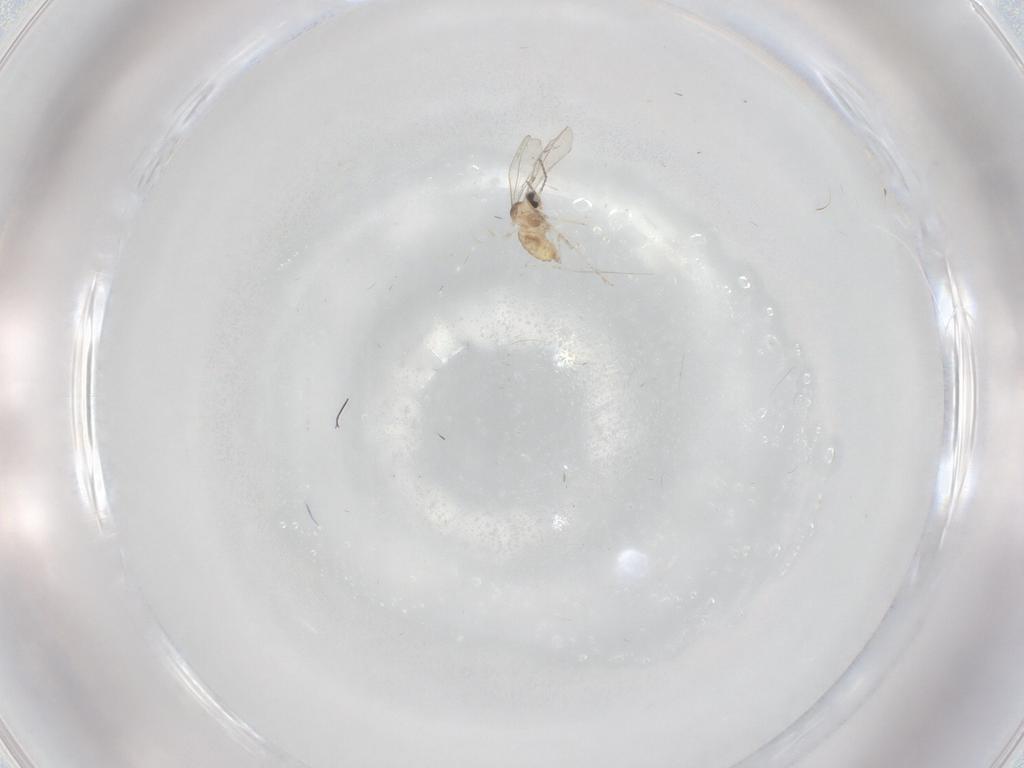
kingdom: Animalia
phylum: Arthropoda
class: Insecta
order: Diptera
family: Cecidomyiidae
